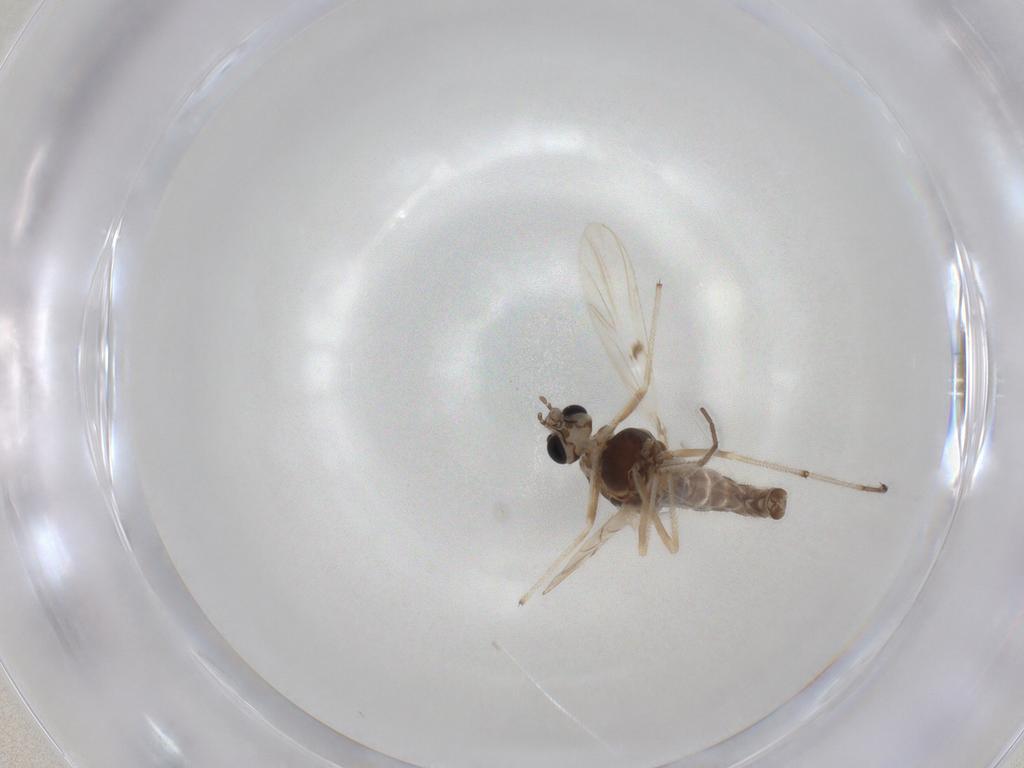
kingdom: Animalia
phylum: Arthropoda
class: Insecta
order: Diptera
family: Chironomidae
